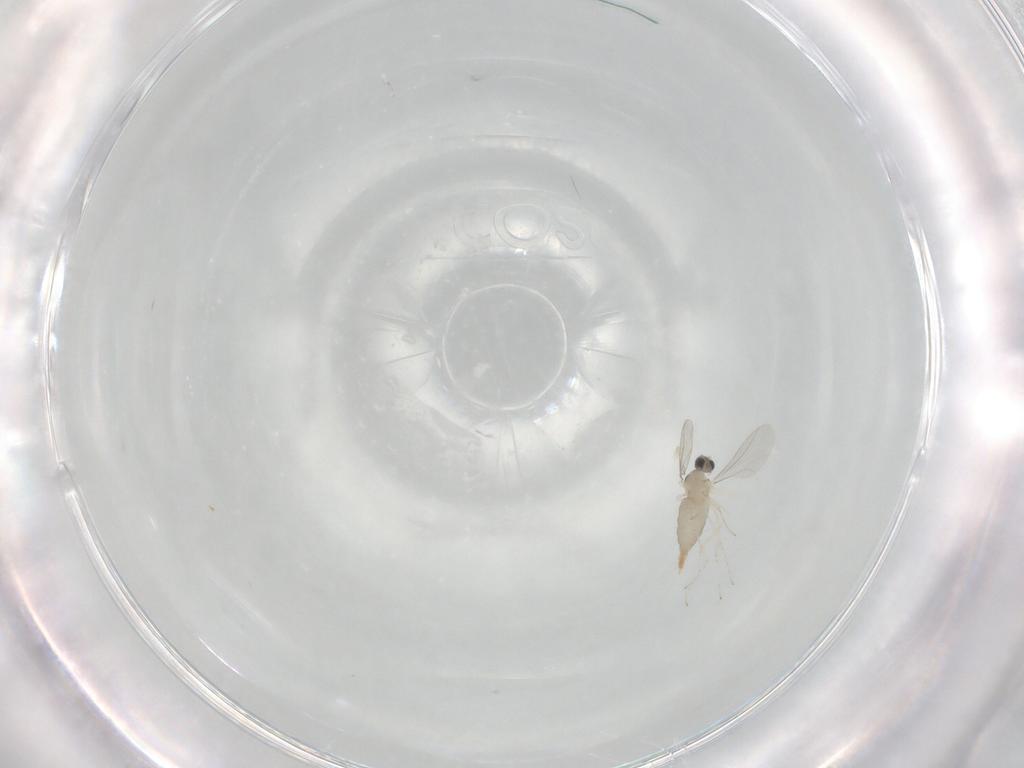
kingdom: Animalia
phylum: Arthropoda
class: Insecta
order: Diptera
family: Cecidomyiidae
